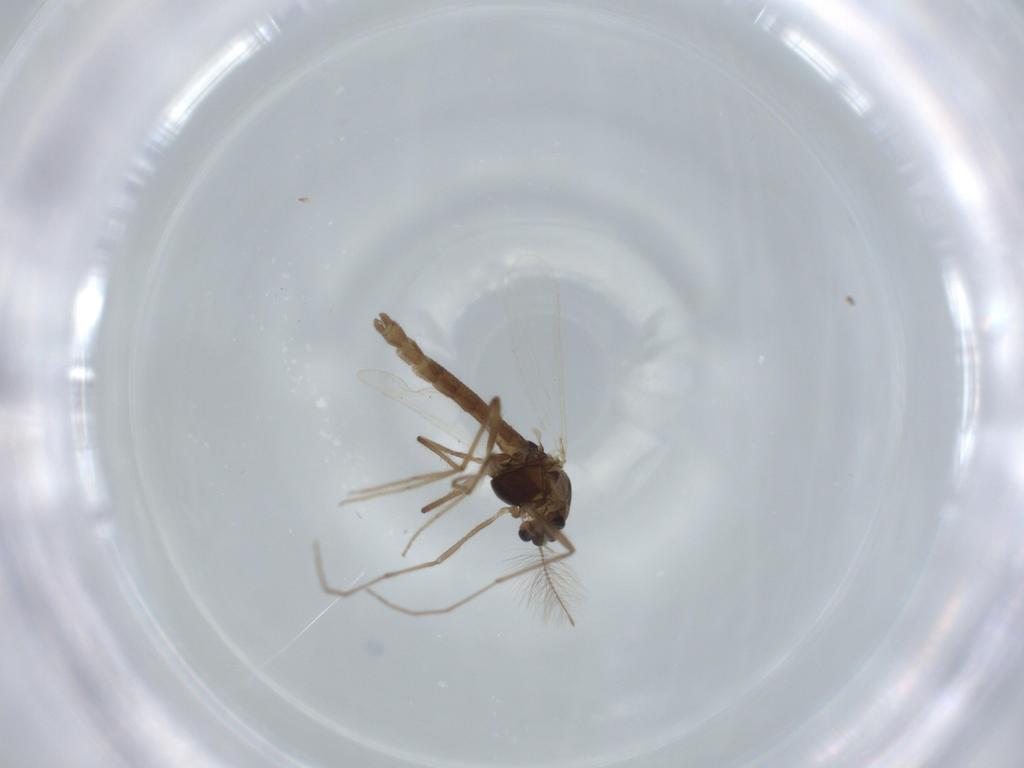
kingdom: Animalia
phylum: Arthropoda
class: Insecta
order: Diptera
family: Chironomidae
